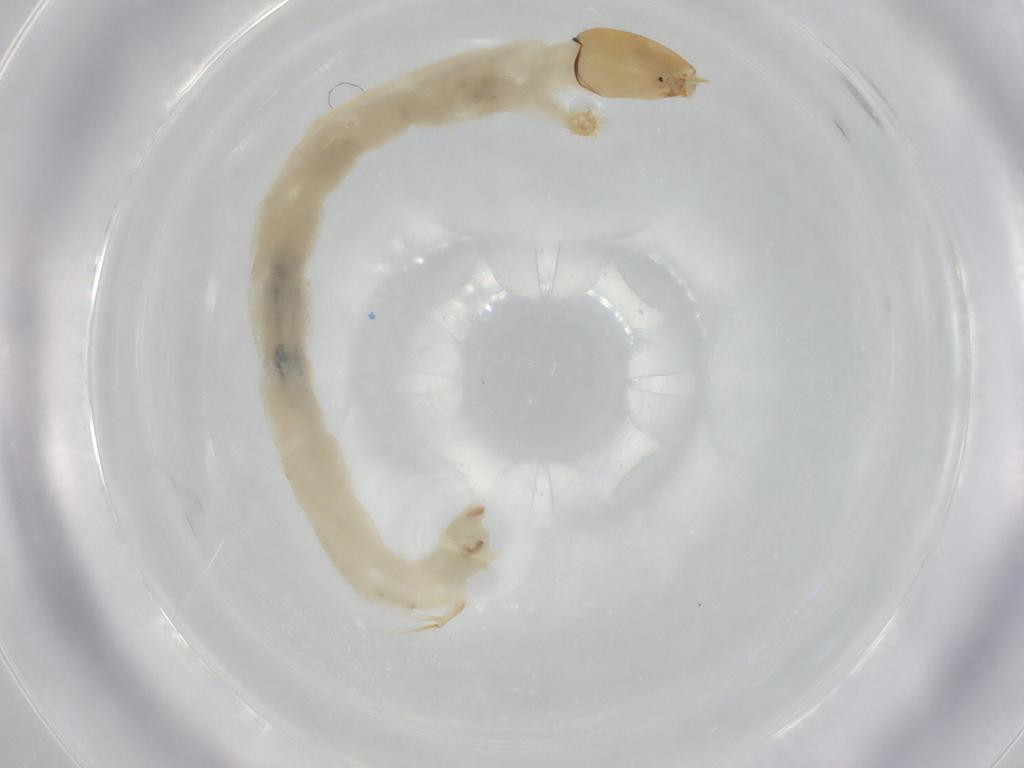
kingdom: Animalia
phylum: Arthropoda
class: Insecta
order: Diptera
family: Chironomidae
